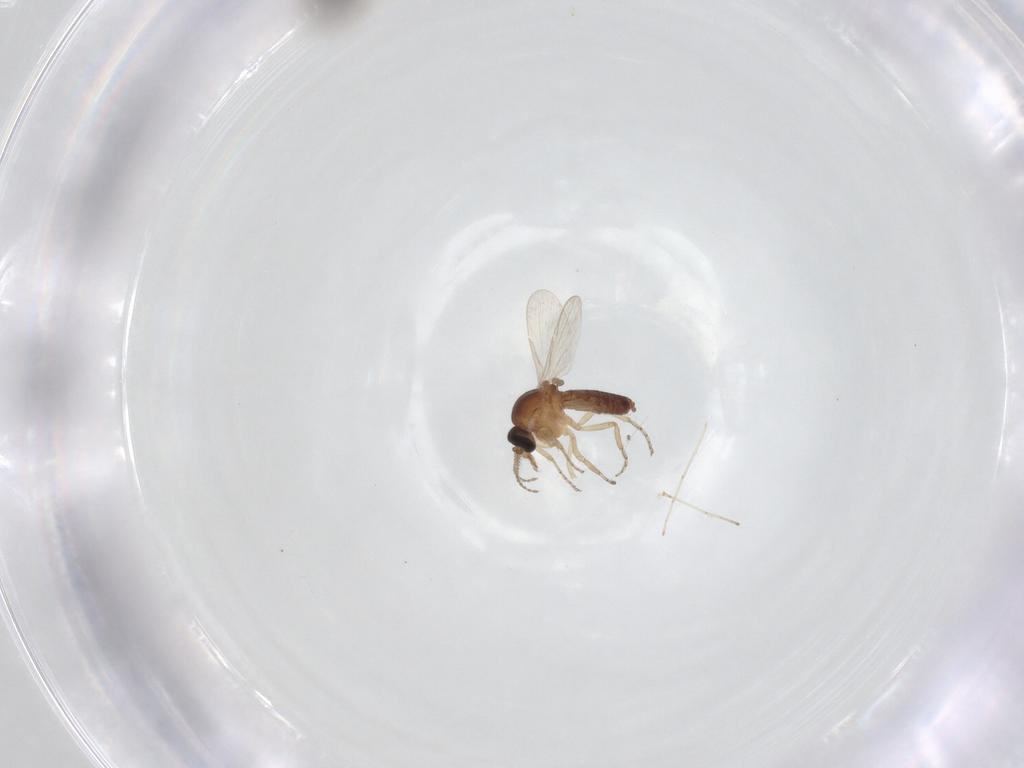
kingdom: Animalia
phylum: Arthropoda
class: Insecta
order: Diptera
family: Ceratopogonidae
